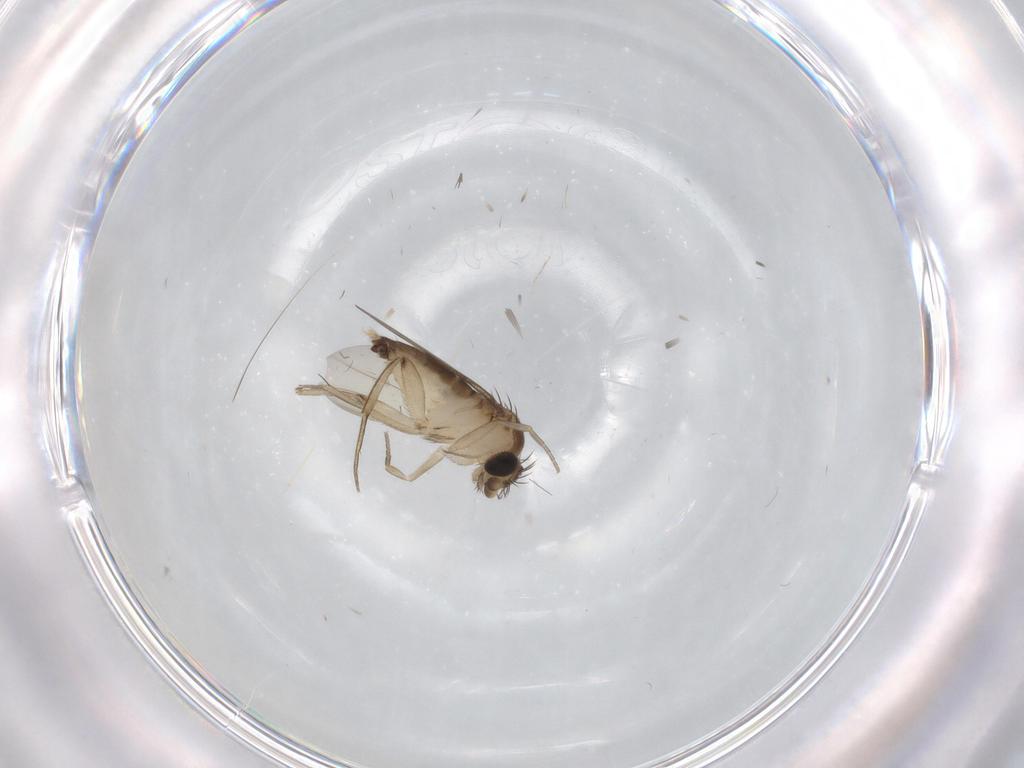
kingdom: Animalia
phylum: Arthropoda
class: Insecta
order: Diptera
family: Phoridae
